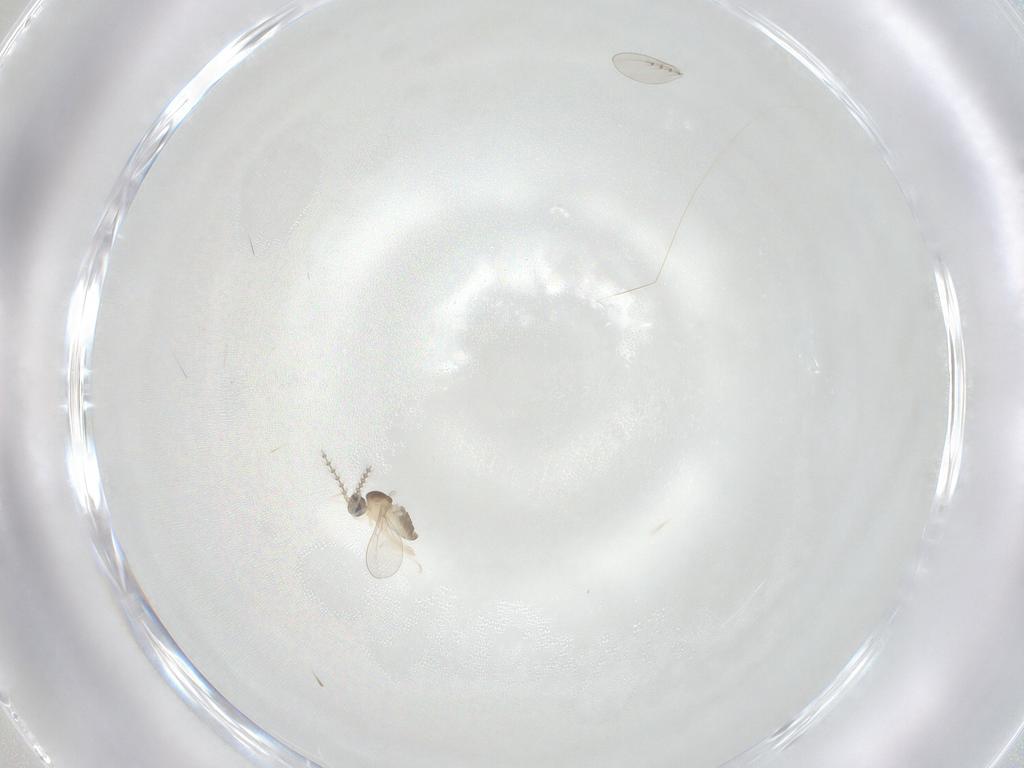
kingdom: Animalia
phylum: Arthropoda
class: Insecta
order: Diptera
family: Cecidomyiidae
